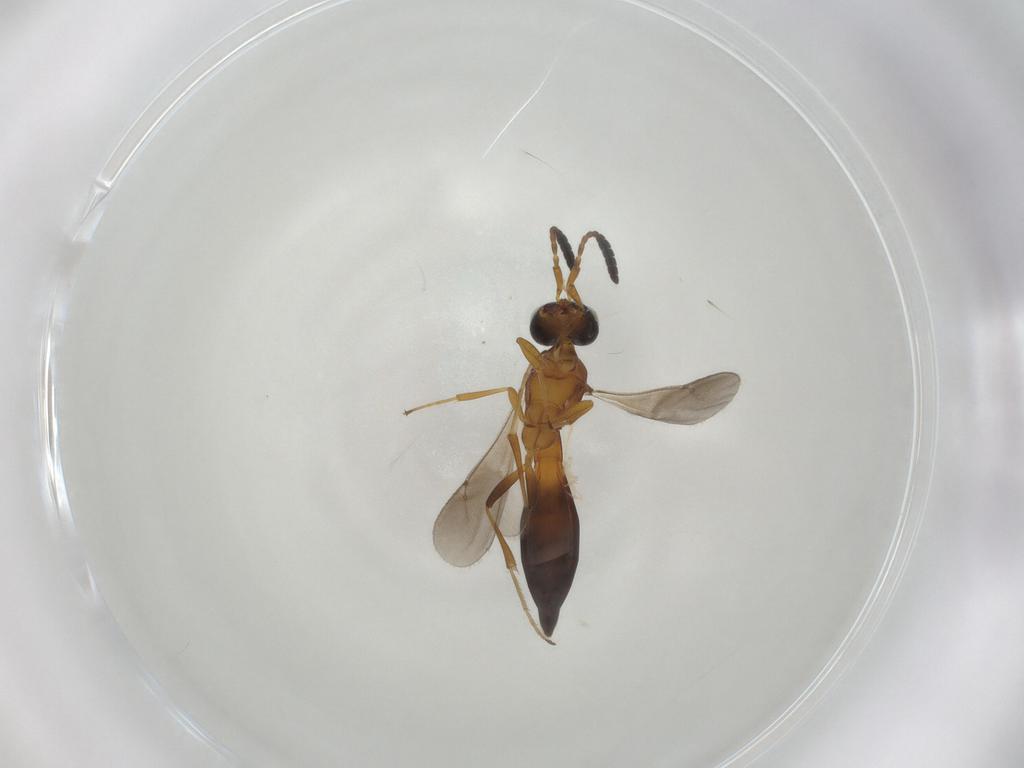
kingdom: Animalia
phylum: Arthropoda
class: Insecta
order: Hymenoptera
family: Scelionidae
